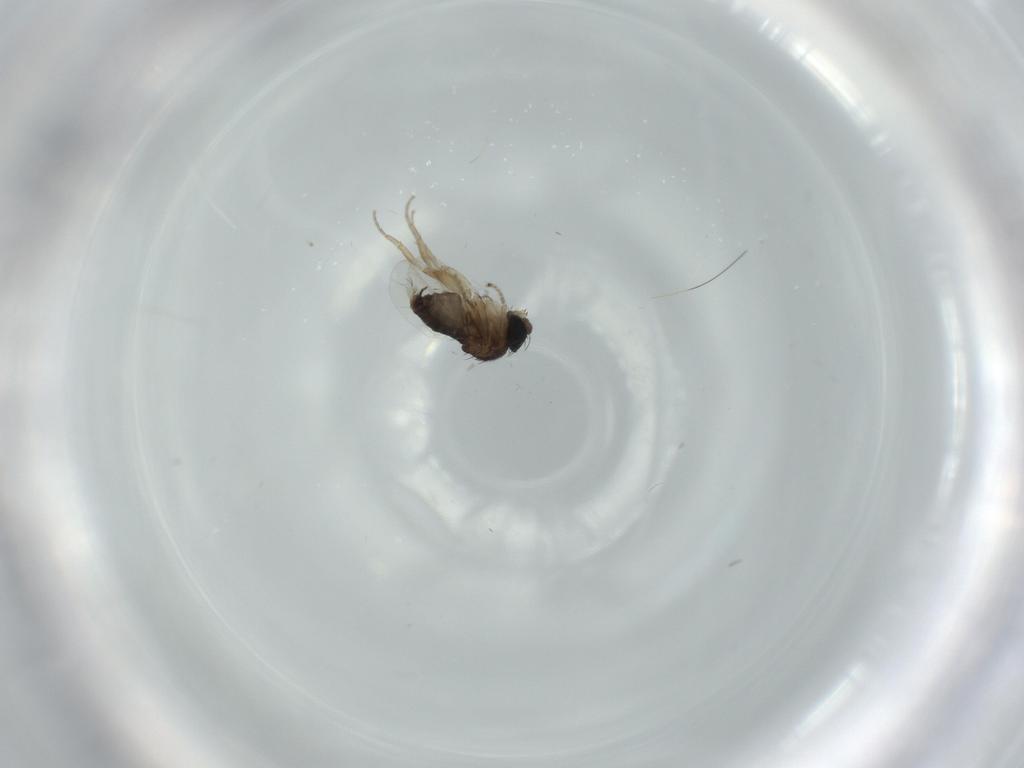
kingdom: Animalia
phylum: Arthropoda
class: Insecta
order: Diptera
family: Phoridae
